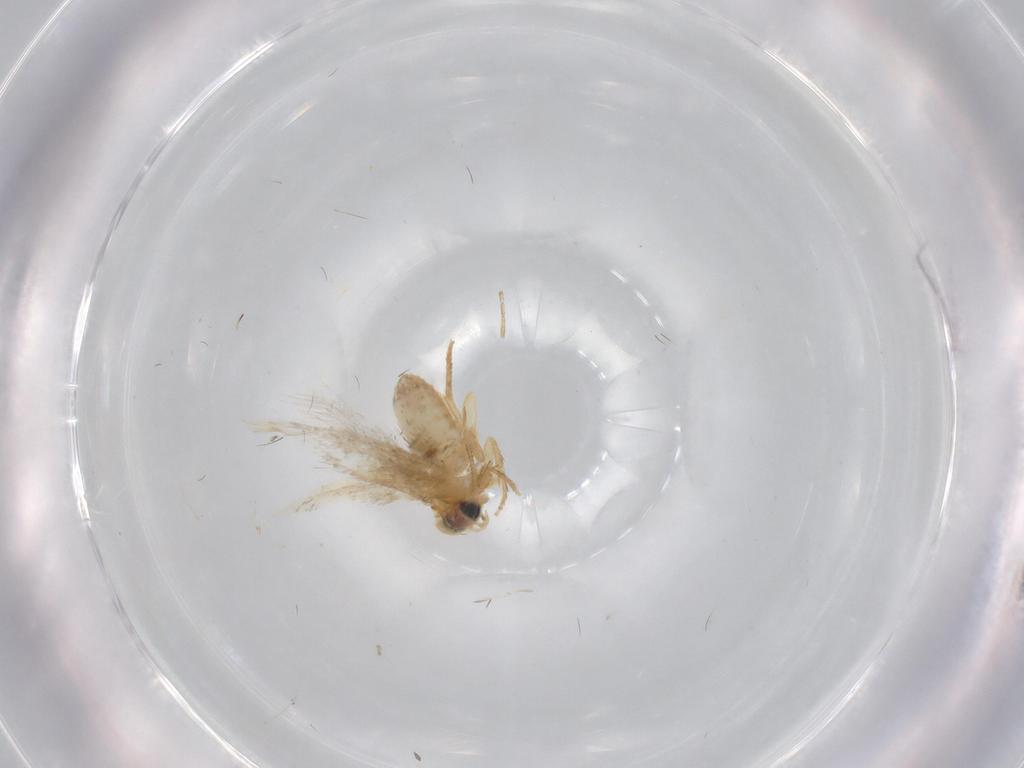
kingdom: Animalia
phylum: Arthropoda
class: Insecta
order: Lepidoptera
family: Nepticulidae
